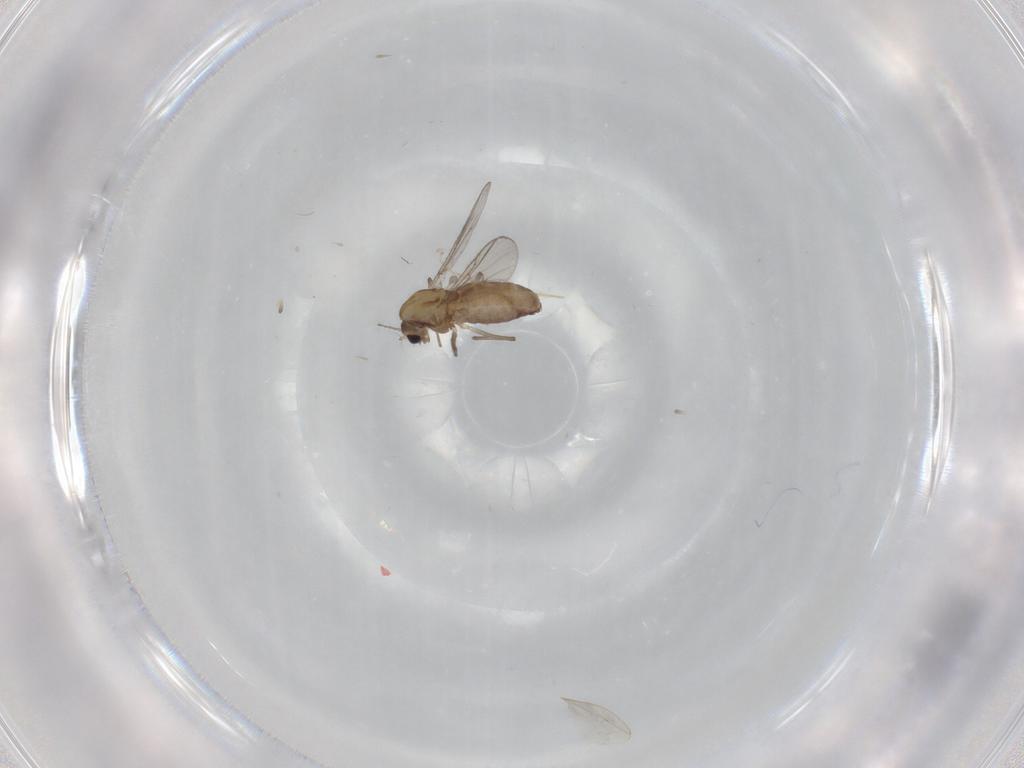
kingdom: Animalia
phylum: Arthropoda
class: Insecta
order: Diptera
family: Chironomidae
